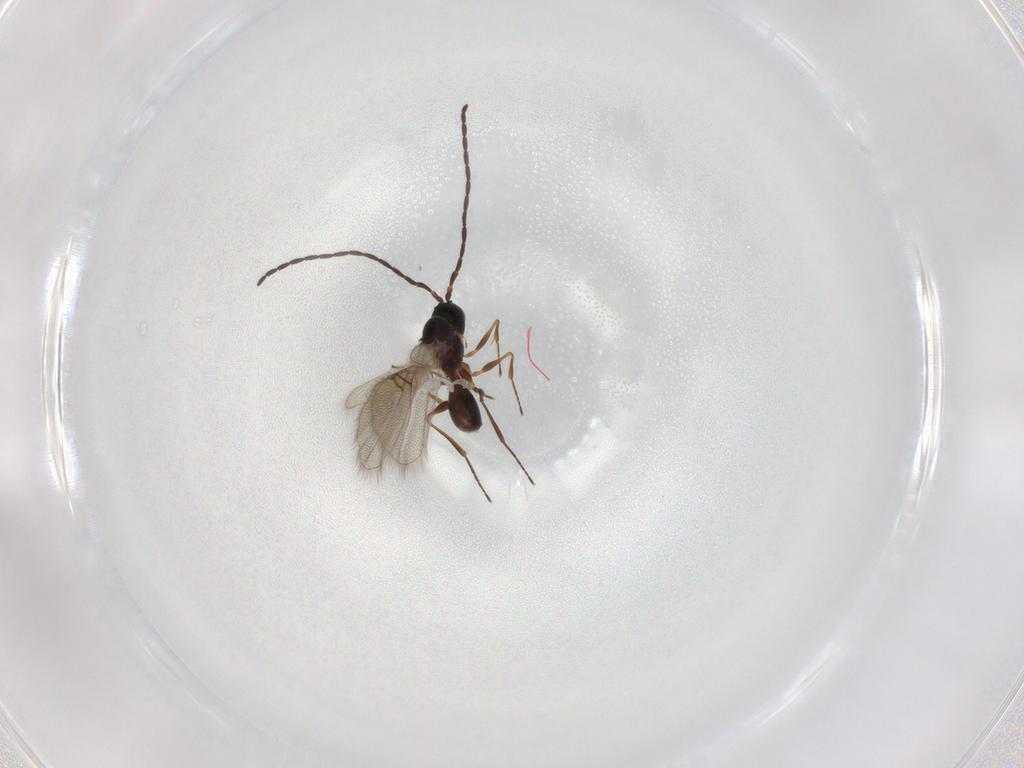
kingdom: Animalia
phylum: Arthropoda
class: Insecta
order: Hymenoptera
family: Figitidae
